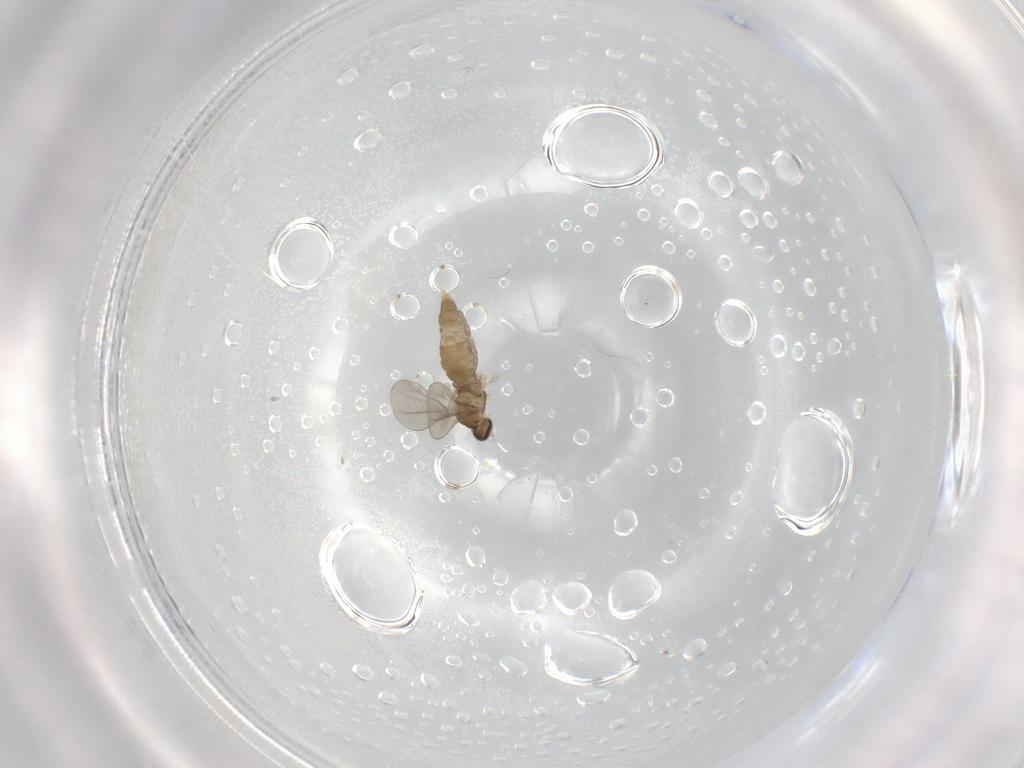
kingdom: Animalia
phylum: Arthropoda
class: Insecta
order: Diptera
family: Cecidomyiidae
